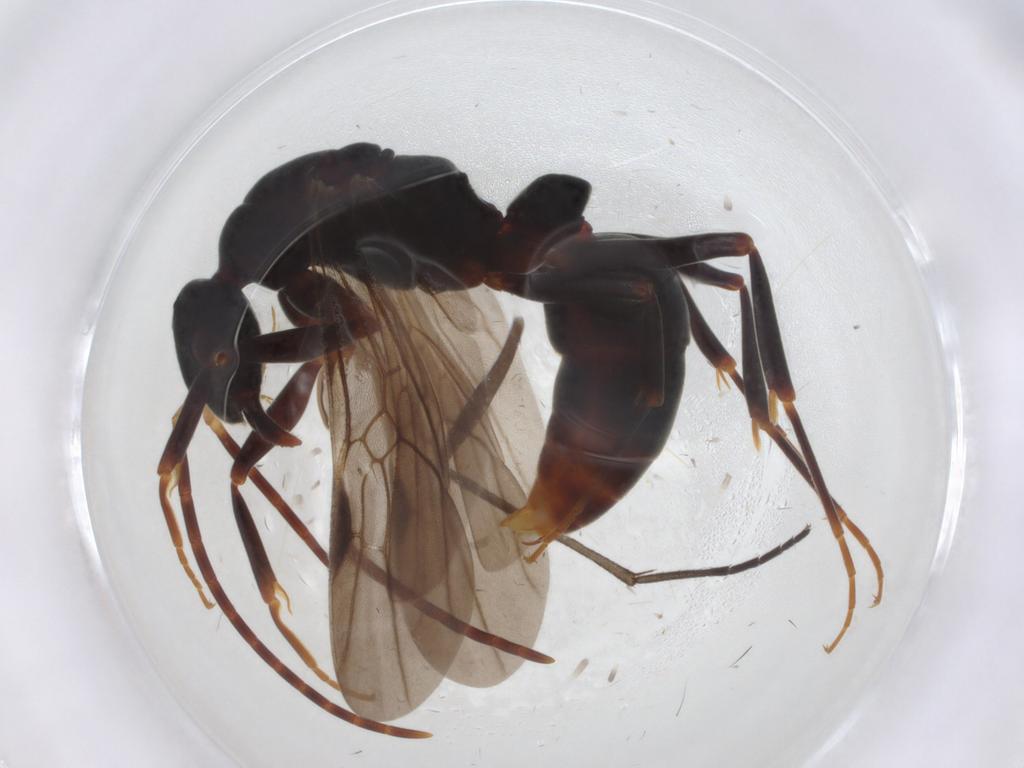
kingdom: Animalia
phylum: Arthropoda
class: Insecta
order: Hymenoptera
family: Formicidae
